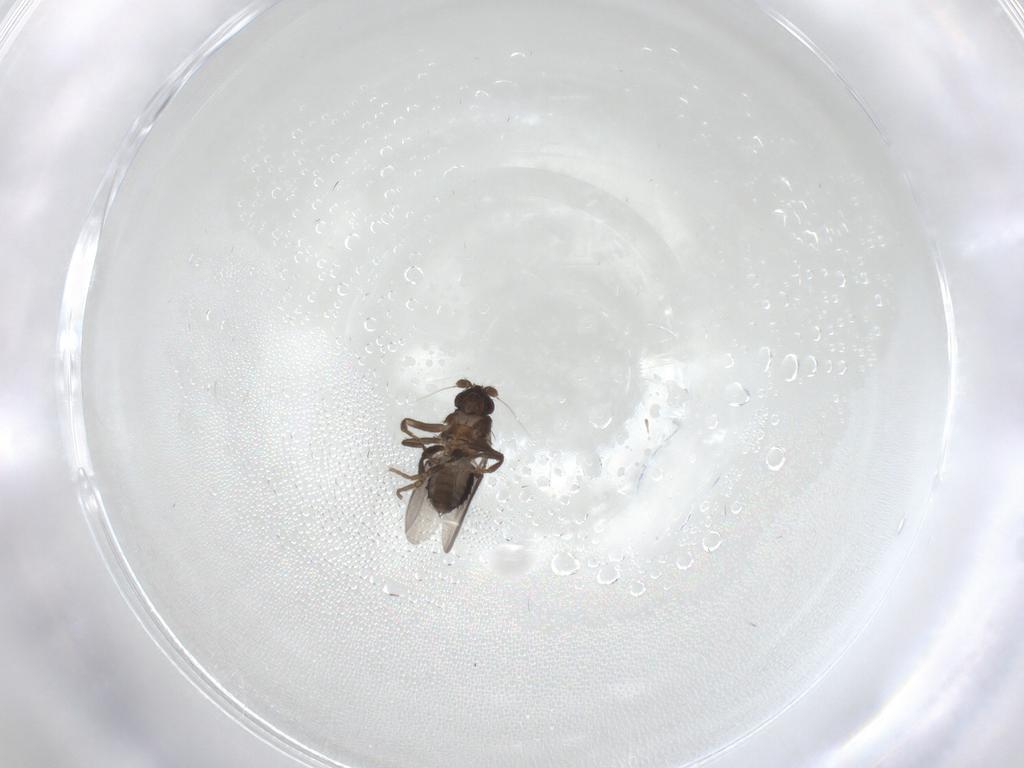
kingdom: Animalia
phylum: Arthropoda
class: Insecta
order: Diptera
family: Sphaeroceridae
